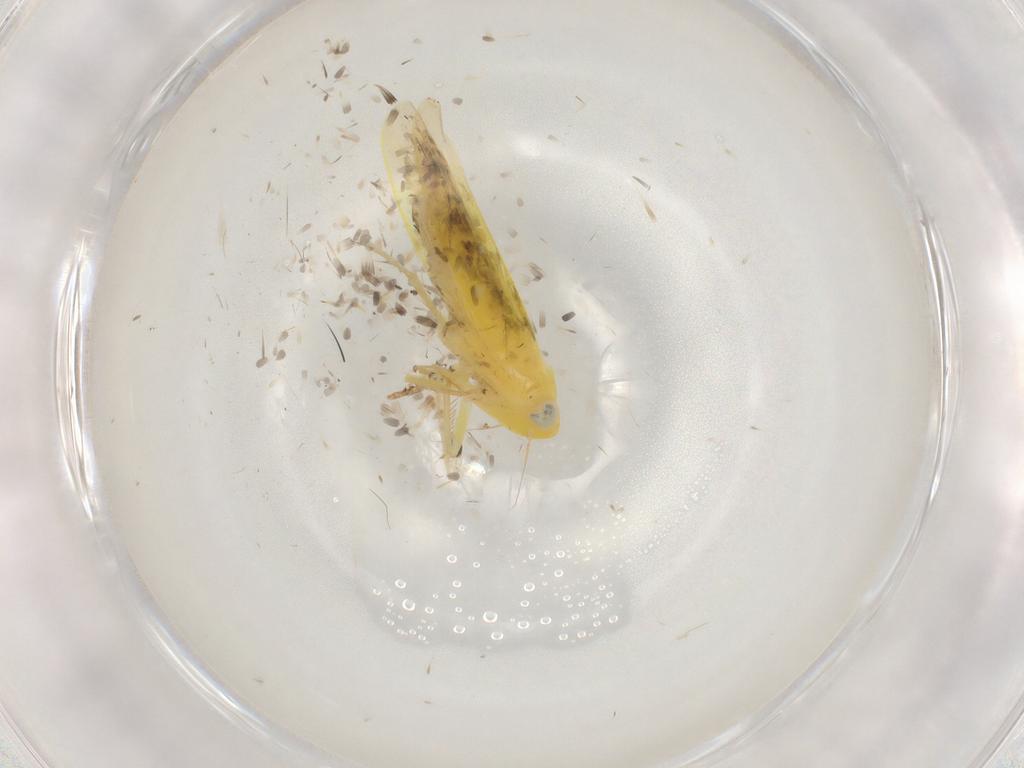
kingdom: Animalia
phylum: Arthropoda
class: Insecta
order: Hemiptera
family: Cicadellidae
